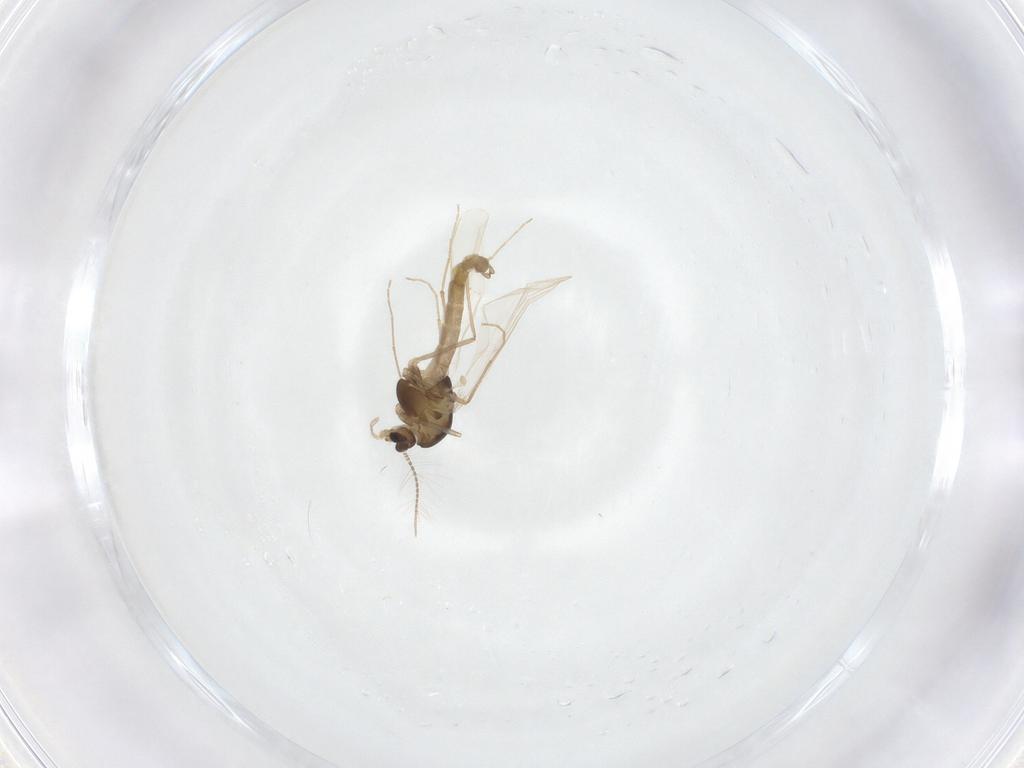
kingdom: Animalia
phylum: Arthropoda
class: Insecta
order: Diptera
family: Chironomidae
